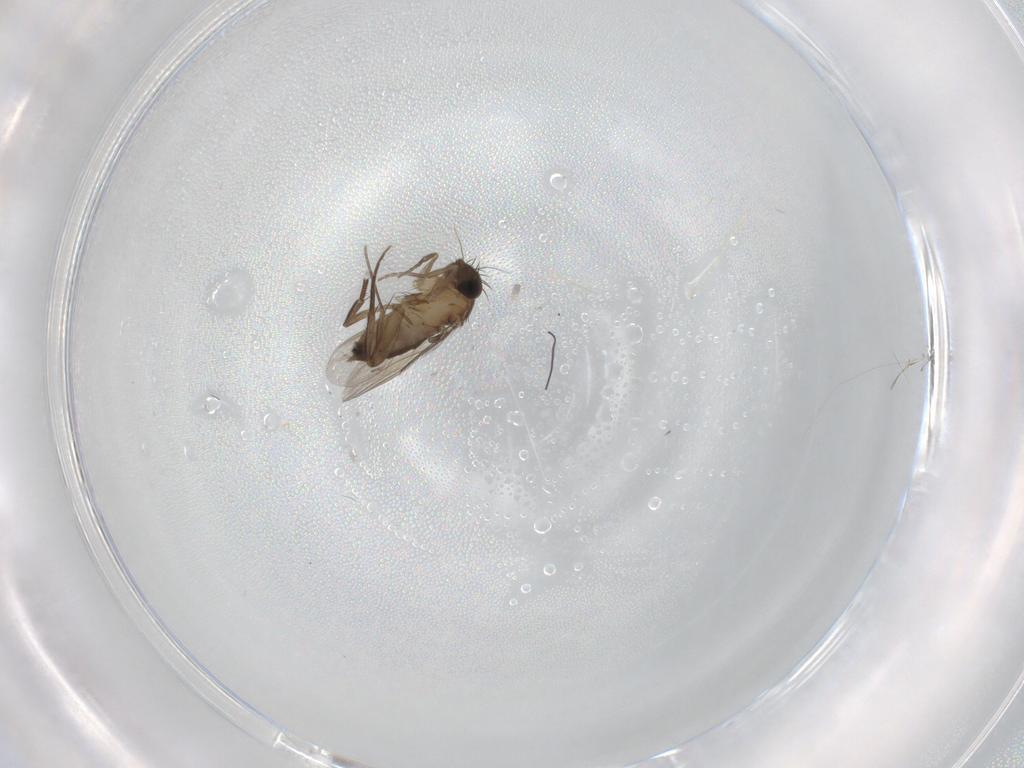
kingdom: Animalia
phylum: Arthropoda
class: Insecta
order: Diptera
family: Phoridae
